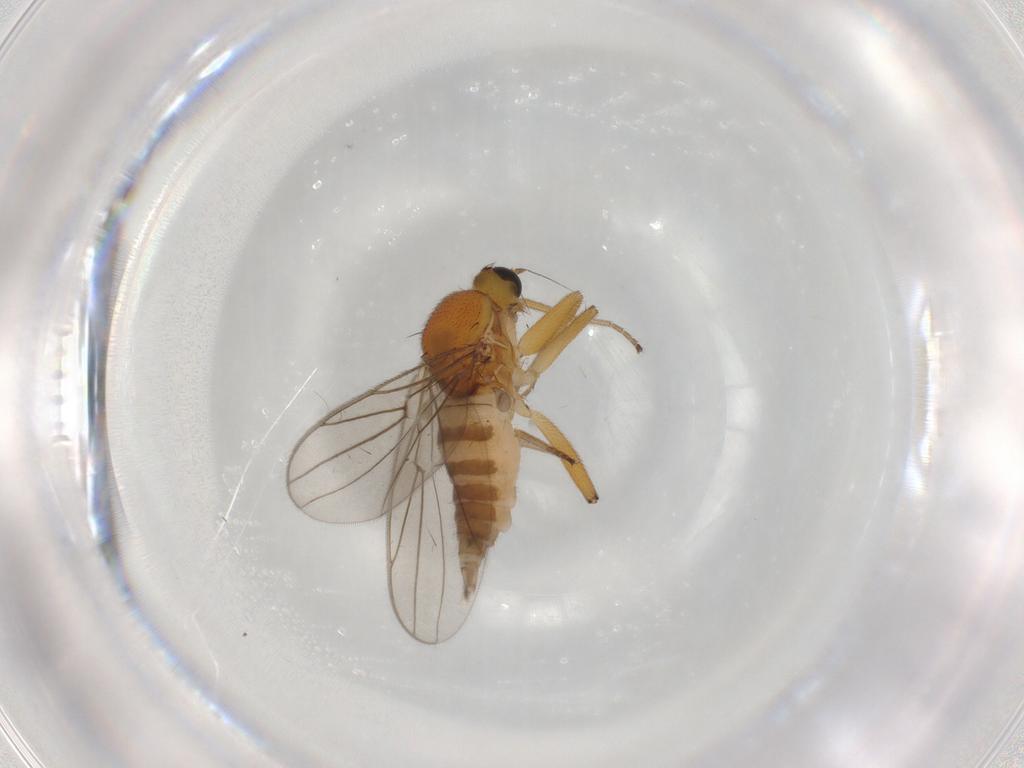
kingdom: Animalia
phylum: Arthropoda
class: Insecta
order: Diptera
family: Hybotidae
